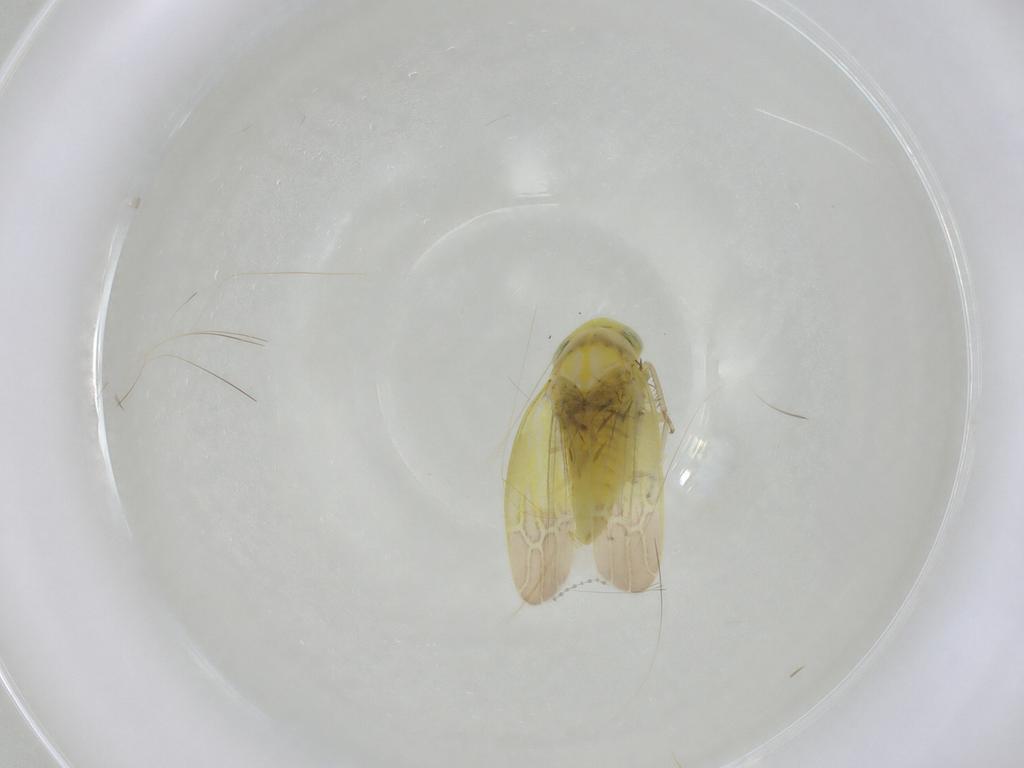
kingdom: Animalia
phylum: Arthropoda
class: Insecta
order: Hemiptera
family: Cicadellidae
